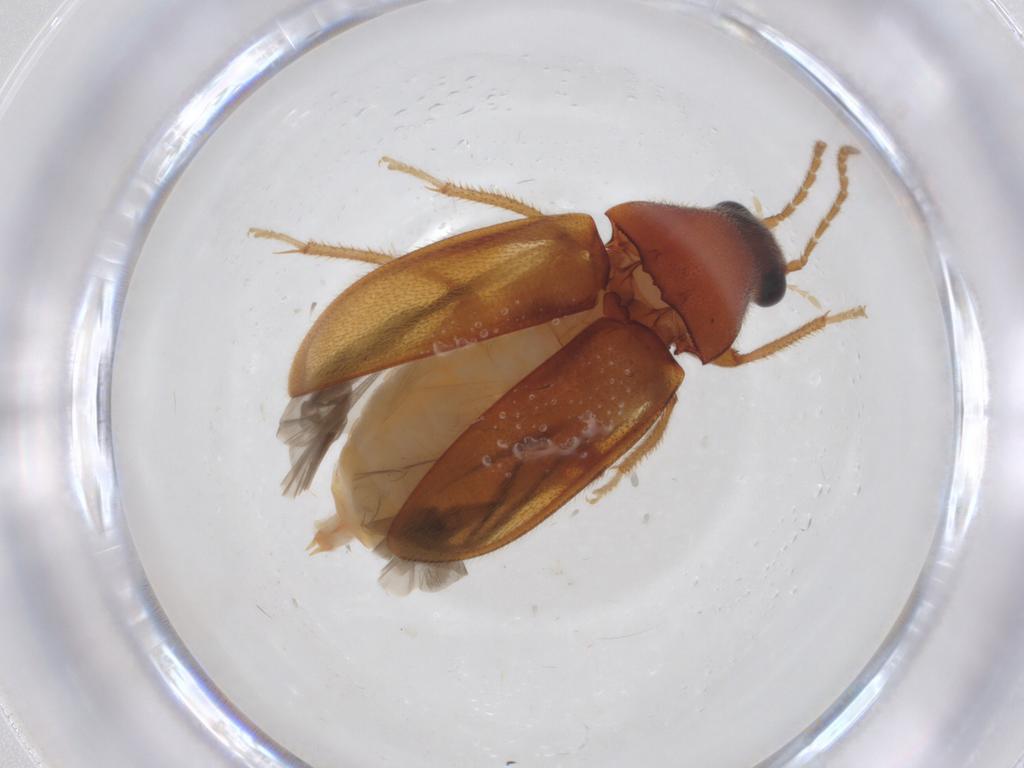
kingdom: Animalia
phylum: Arthropoda
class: Insecta
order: Coleoptera
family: Ptilodactylidae
